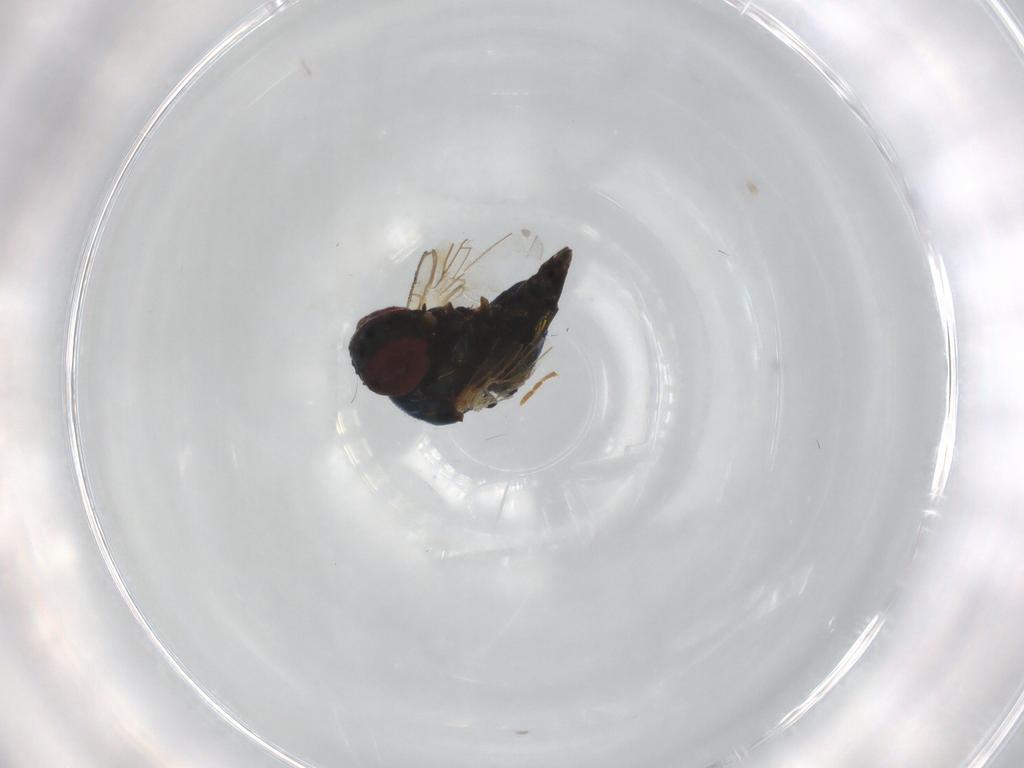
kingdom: Animalia
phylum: Arthropoda
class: Insecta
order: Diptera
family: Agromyzidae
